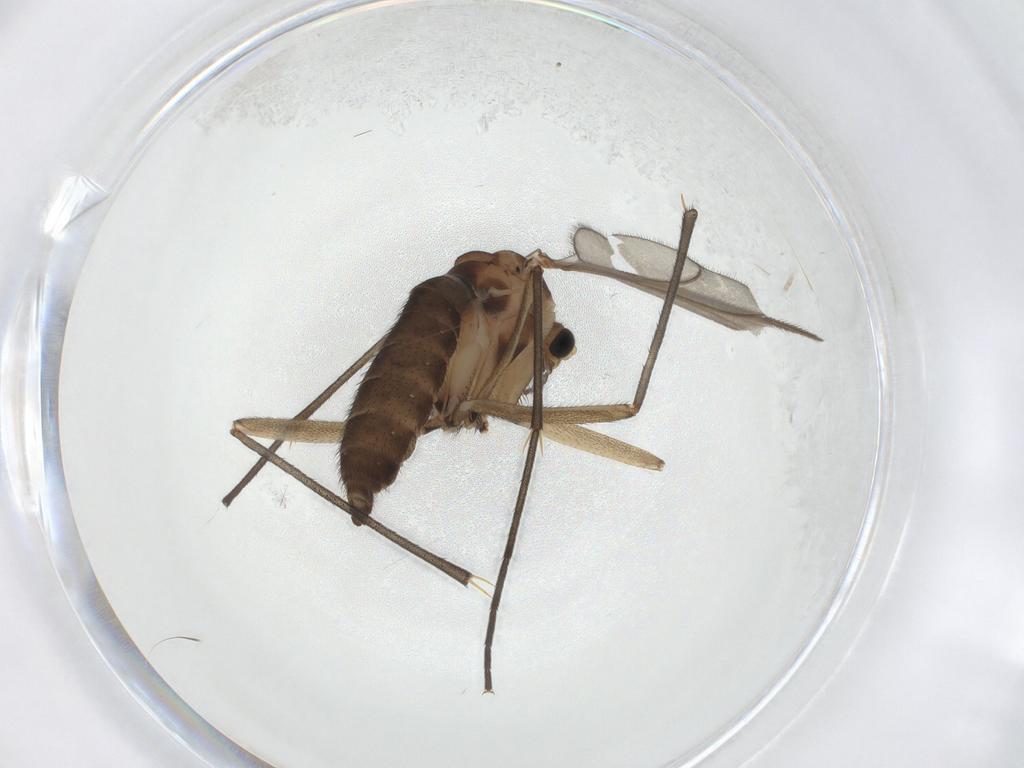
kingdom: Animalia
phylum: Arthropoda
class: Insecta
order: Diptera
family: Sciaridae
